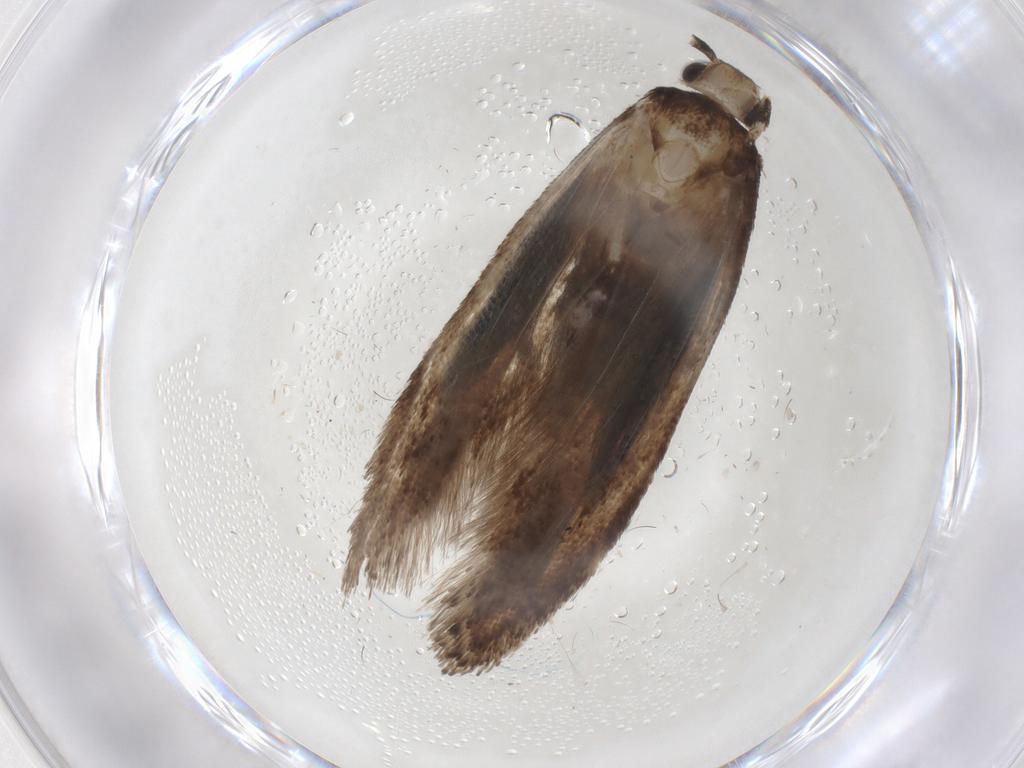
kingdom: Animalia
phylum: Arthropoda
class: Insecta
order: Lepidoptera
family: Gelechiidae
